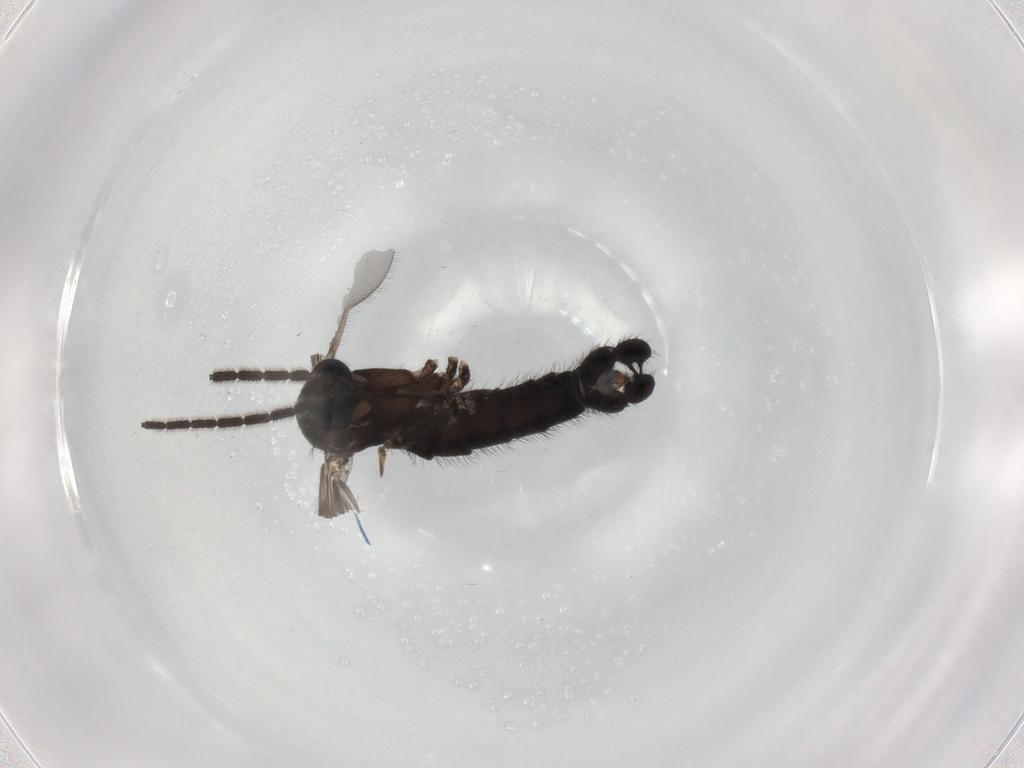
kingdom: Animalia
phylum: Arthropoda
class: Insecta
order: Diptera
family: Sciaridae
